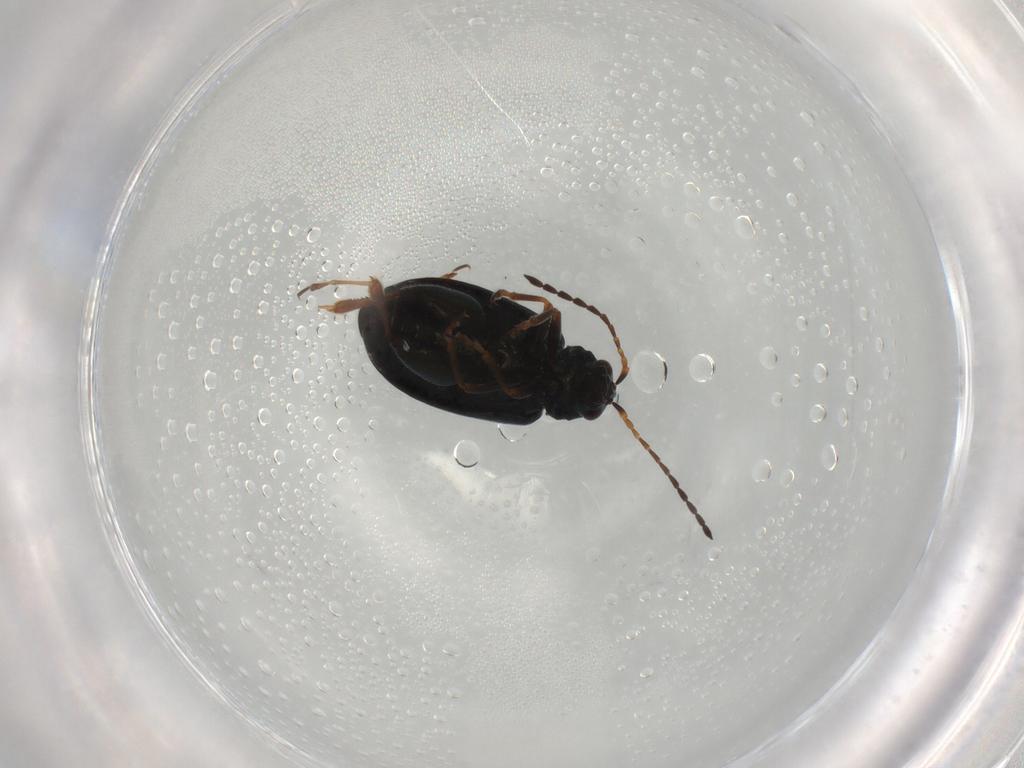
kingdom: Animalia
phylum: Arthropoda
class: Insecta
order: Coleoptera
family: Chrysomelidae
